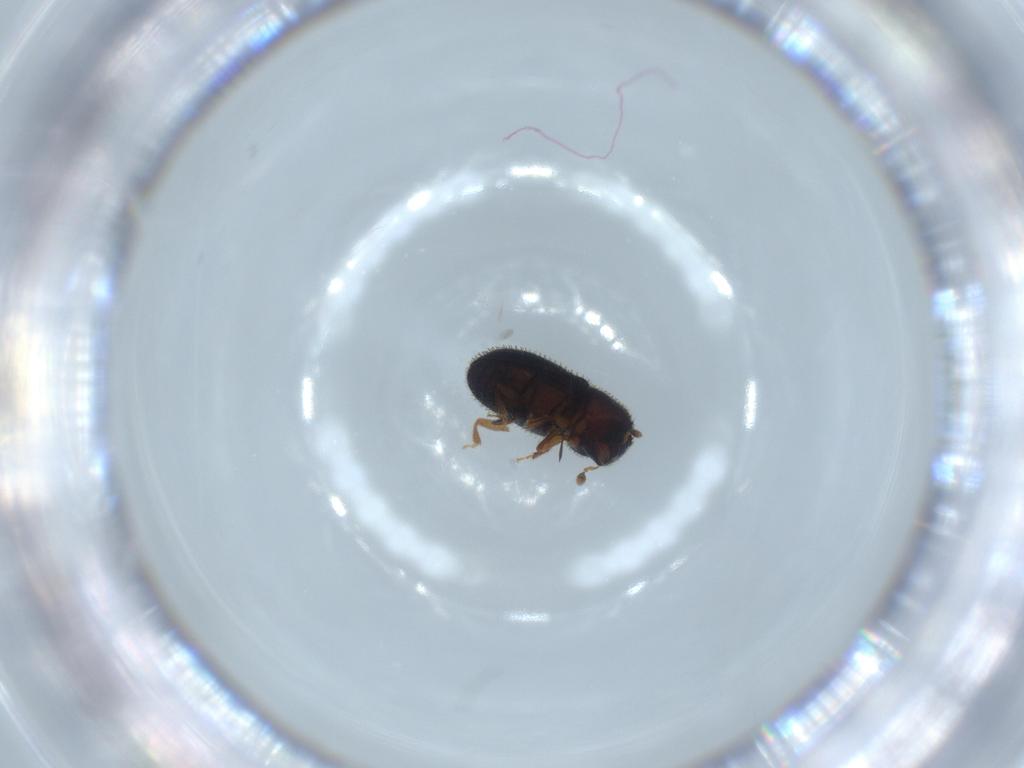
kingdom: Animalia
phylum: Arthropoda
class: Insecta
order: Coleoptera
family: Curculionidae
